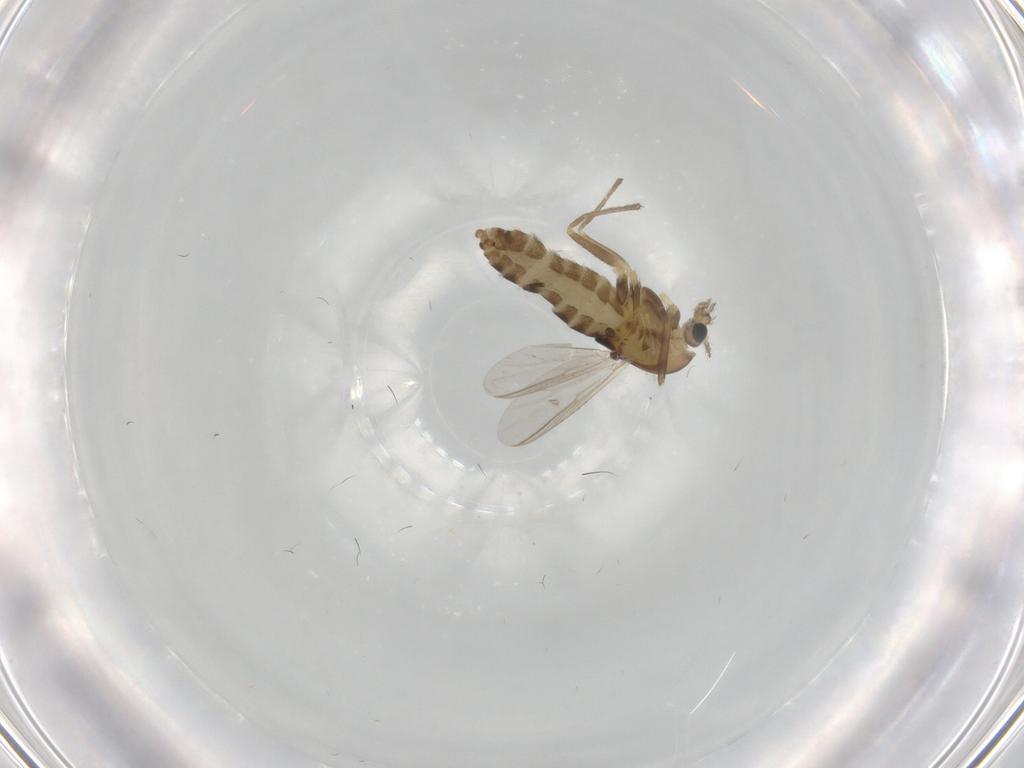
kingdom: Animalia
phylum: Arthropoda
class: Insecta
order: Diptera
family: Chironomidae
